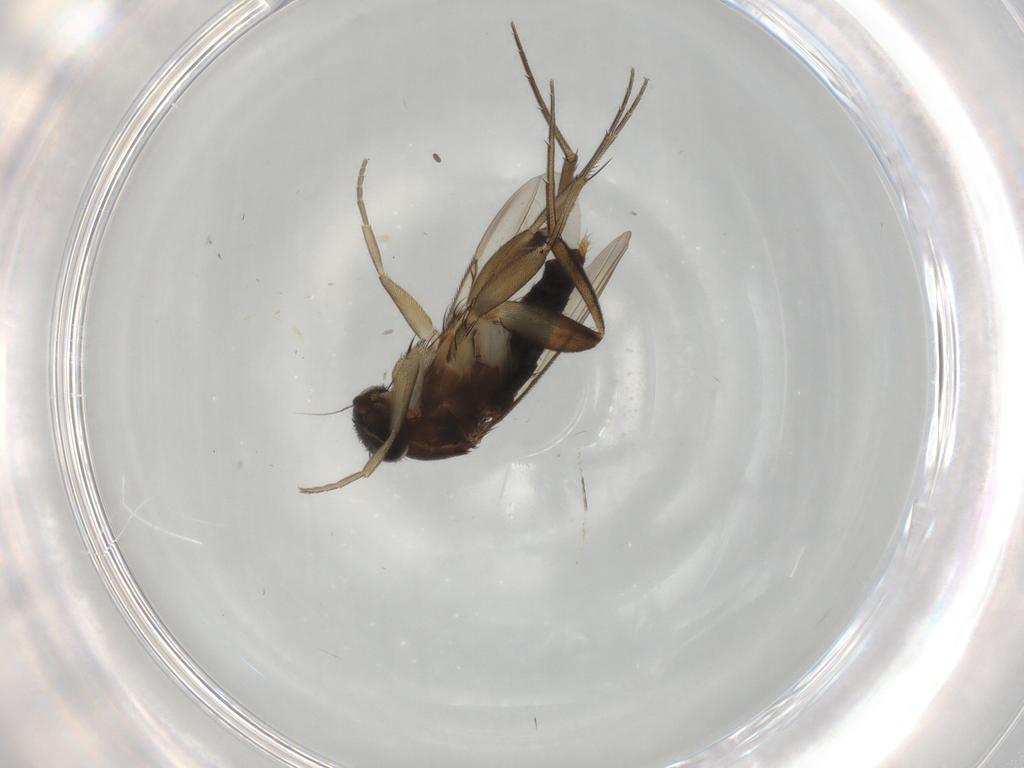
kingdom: Animalia
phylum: Arthropoda
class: Insecta
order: Diptera
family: Phoridae
